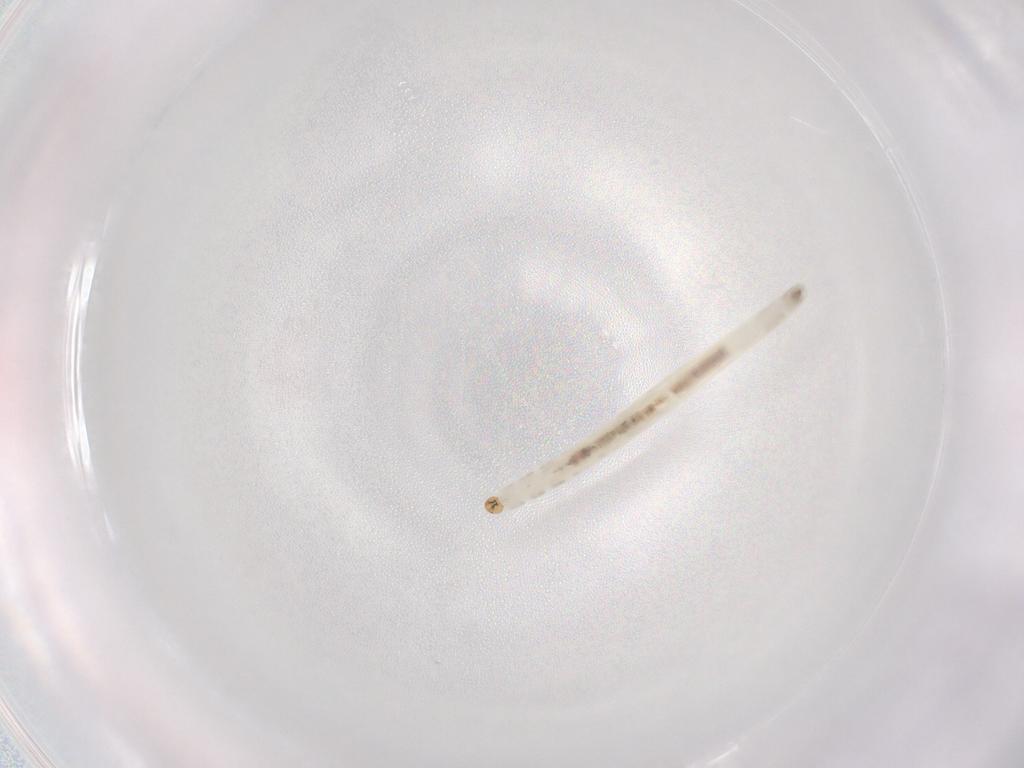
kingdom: Animalia
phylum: Arthropoda
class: Insecta
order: Diptera
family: Chironomidae
